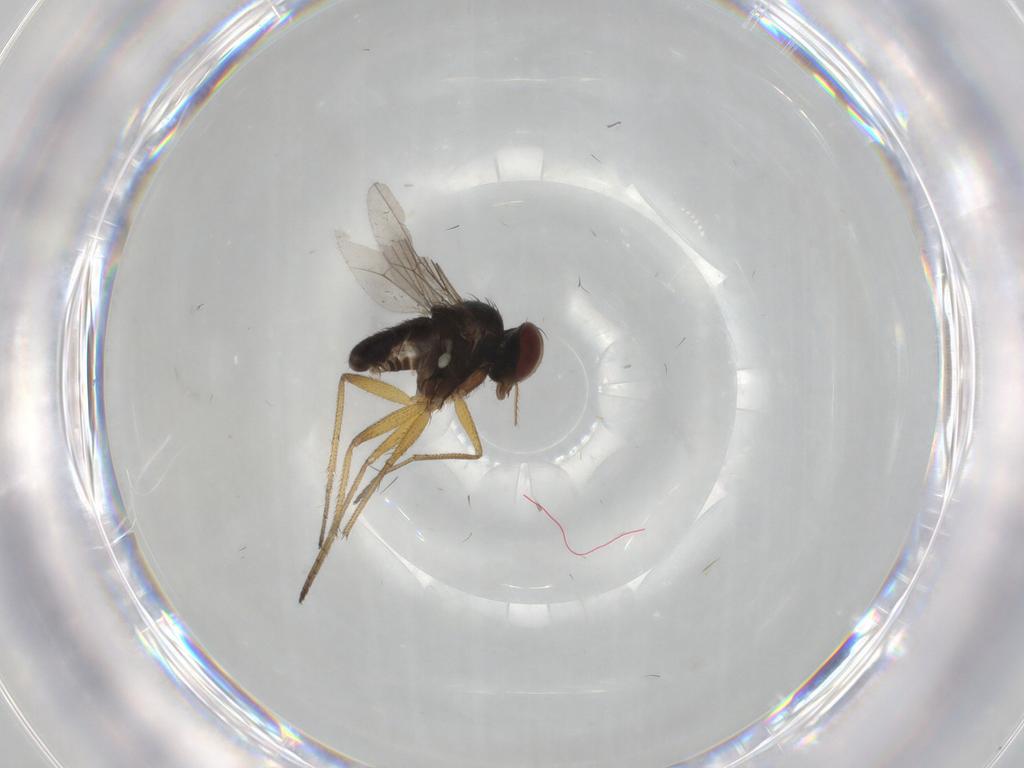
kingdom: Animalia
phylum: Arthropoda
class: Insecta
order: Diptera
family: Dolichopodidae
